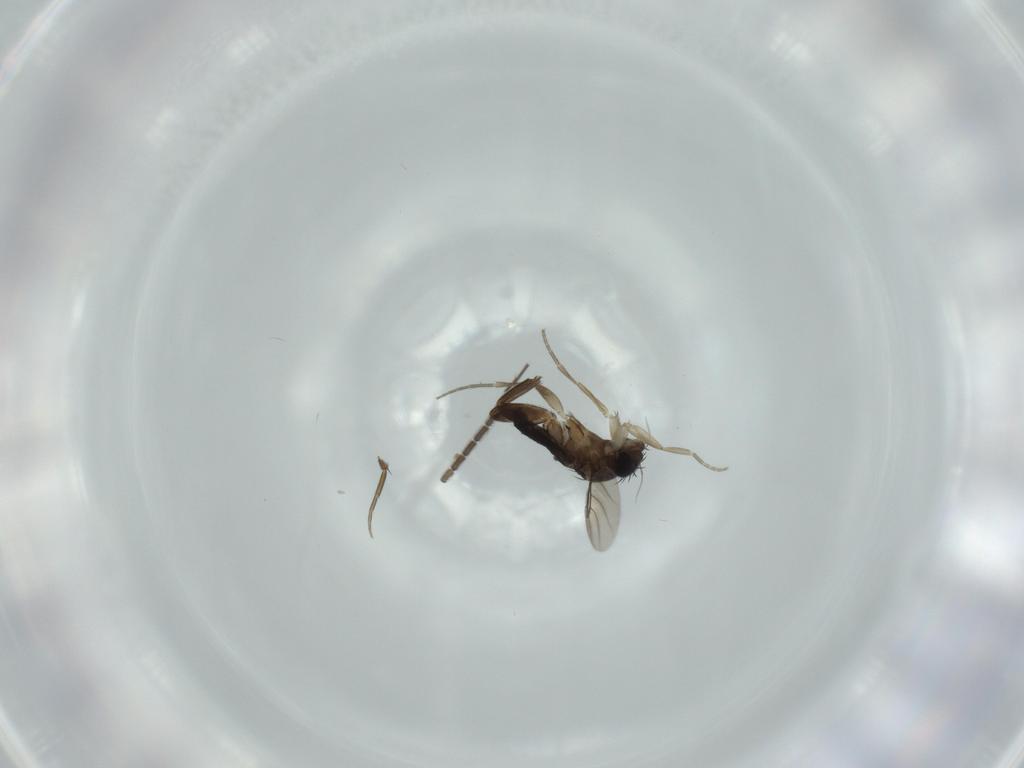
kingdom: Animalia
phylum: Arthropoda
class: Insecta
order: Diptera
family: Phoridae
